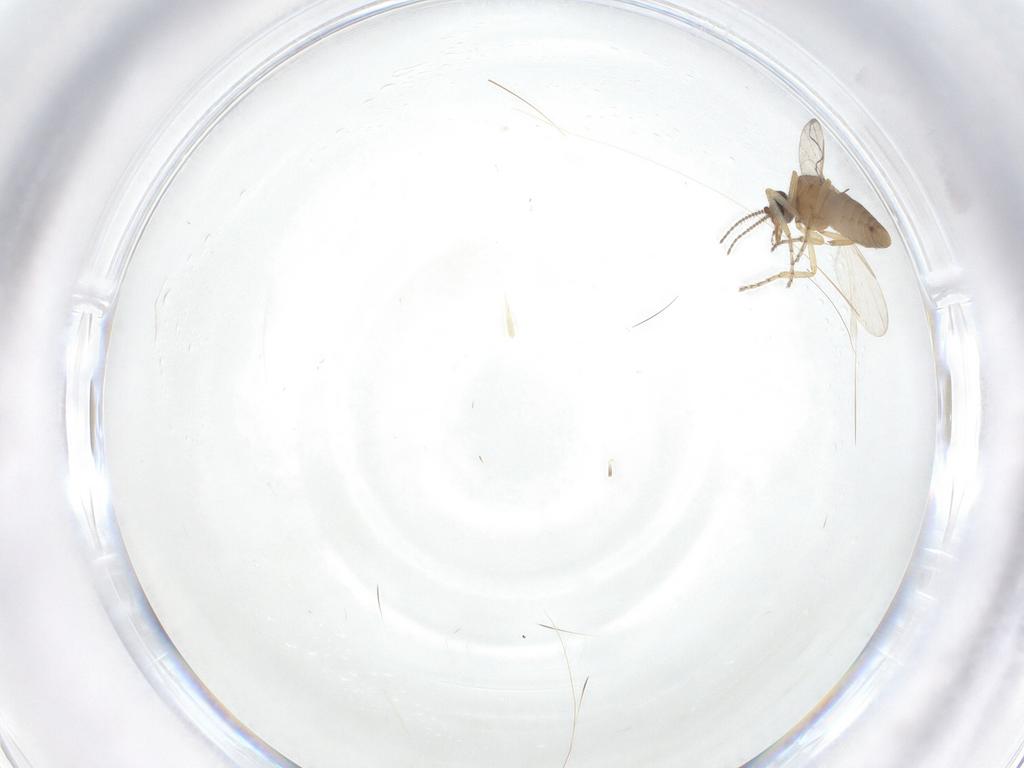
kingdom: Animalia
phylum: Arthropoda
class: Insecta
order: Diptera
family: Ceratopogonidae
